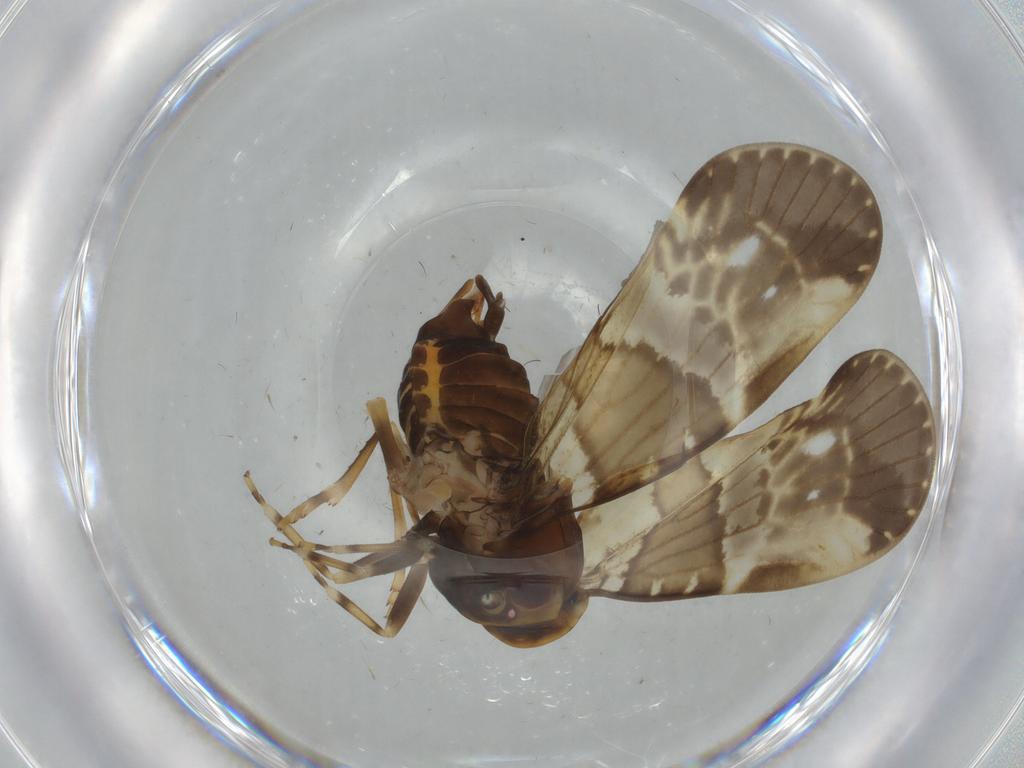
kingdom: Animalia
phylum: Arthropoda
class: Insecta
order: Hemiptera
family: Cixiidae
